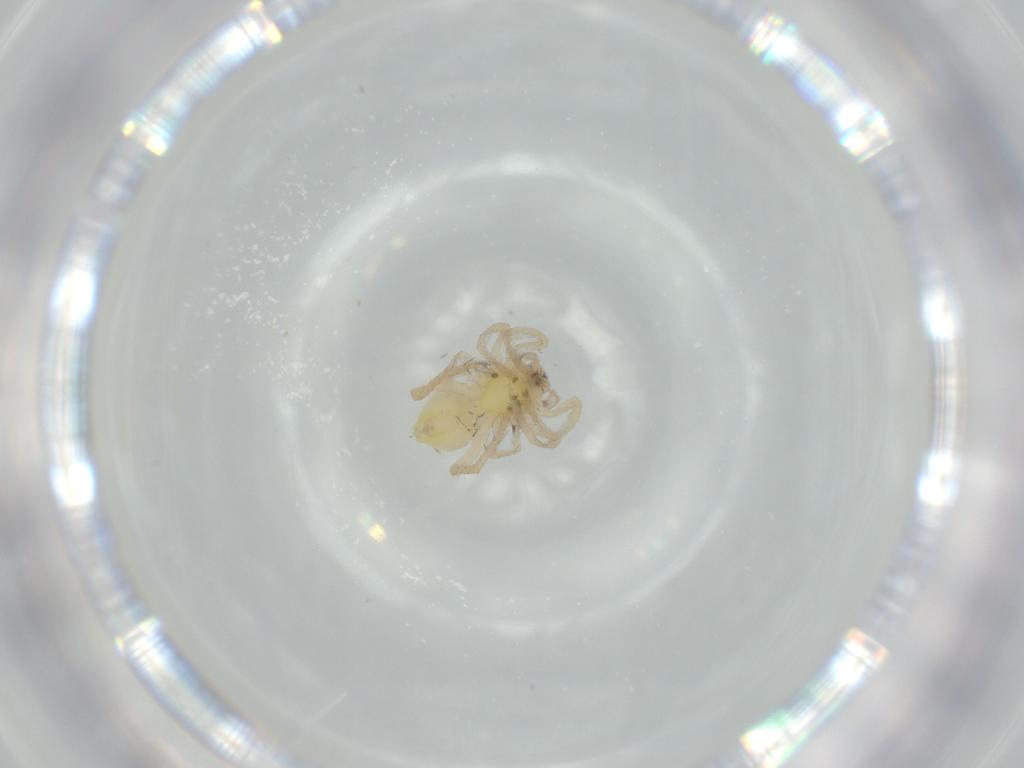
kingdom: Animalia
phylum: Arthropoda
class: Arachnida
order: Araneae
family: Anyphaenidae
